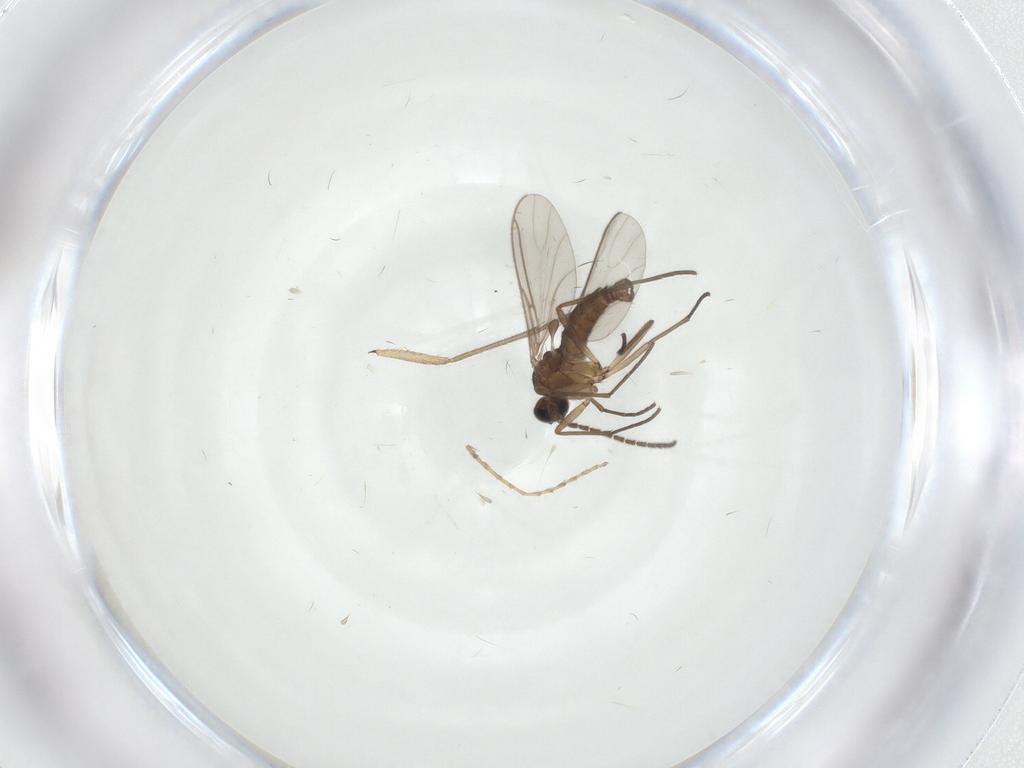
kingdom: Animalia
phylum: Arthropoda
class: Insecta
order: Diptera
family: Sciaridae
